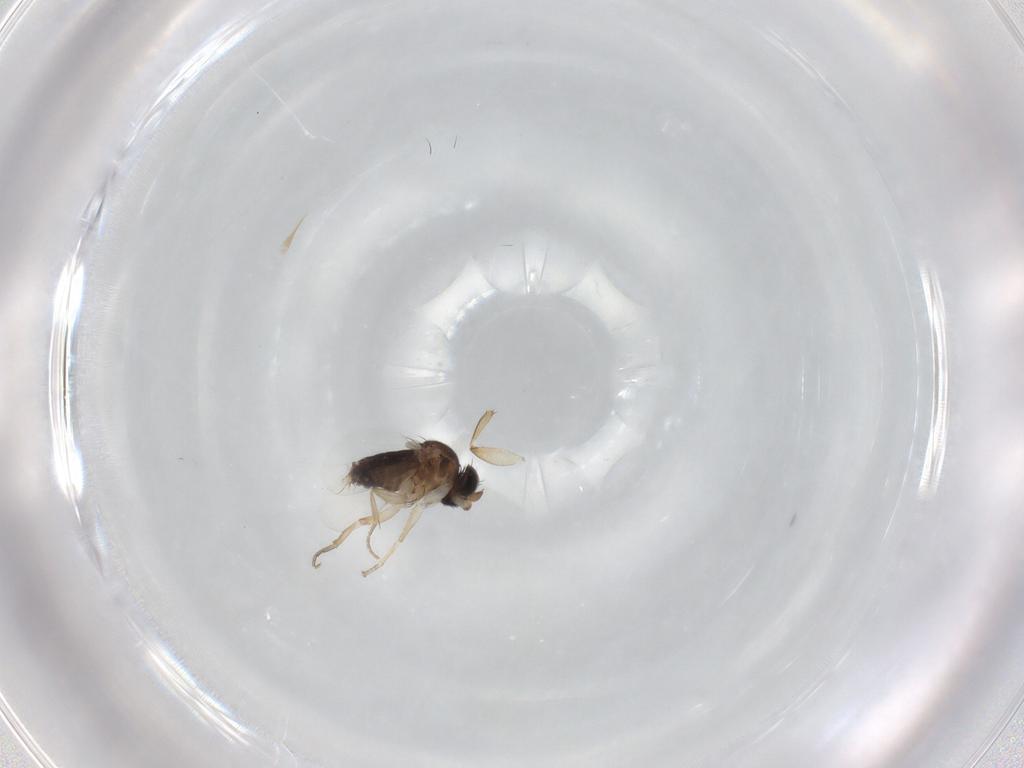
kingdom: Animalia
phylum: Arthropoda
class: Insecta
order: Diptera
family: Phoridae
